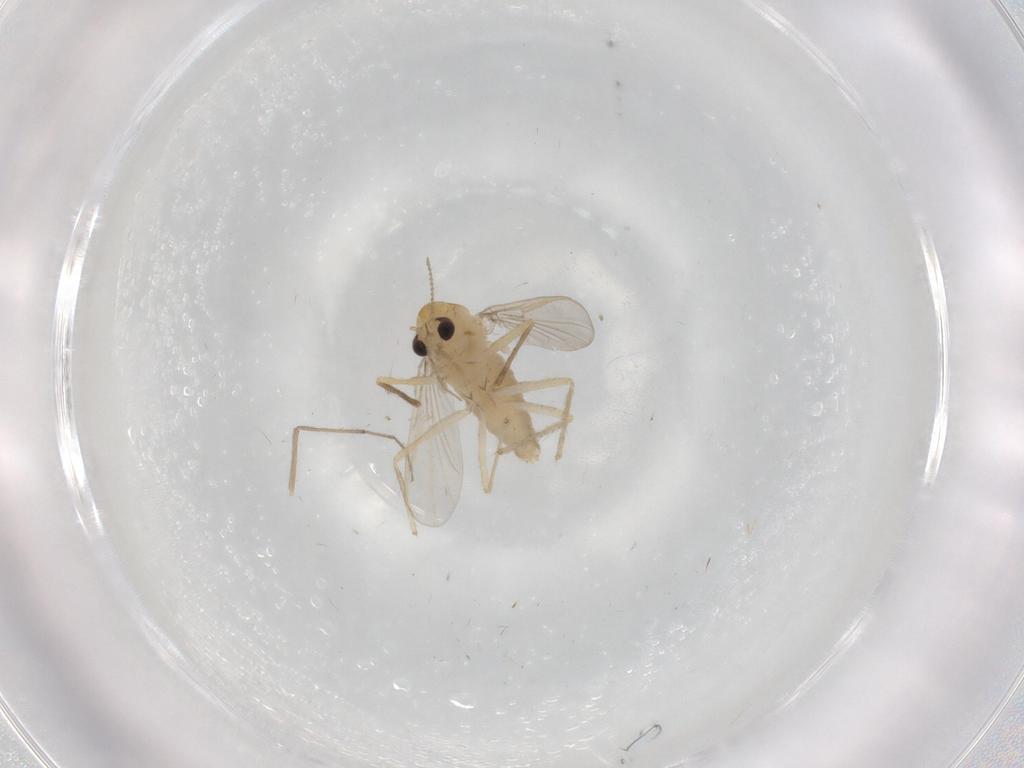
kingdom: Animalia
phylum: Arthropoda
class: Insecta
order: Diptera
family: Chironomidae
